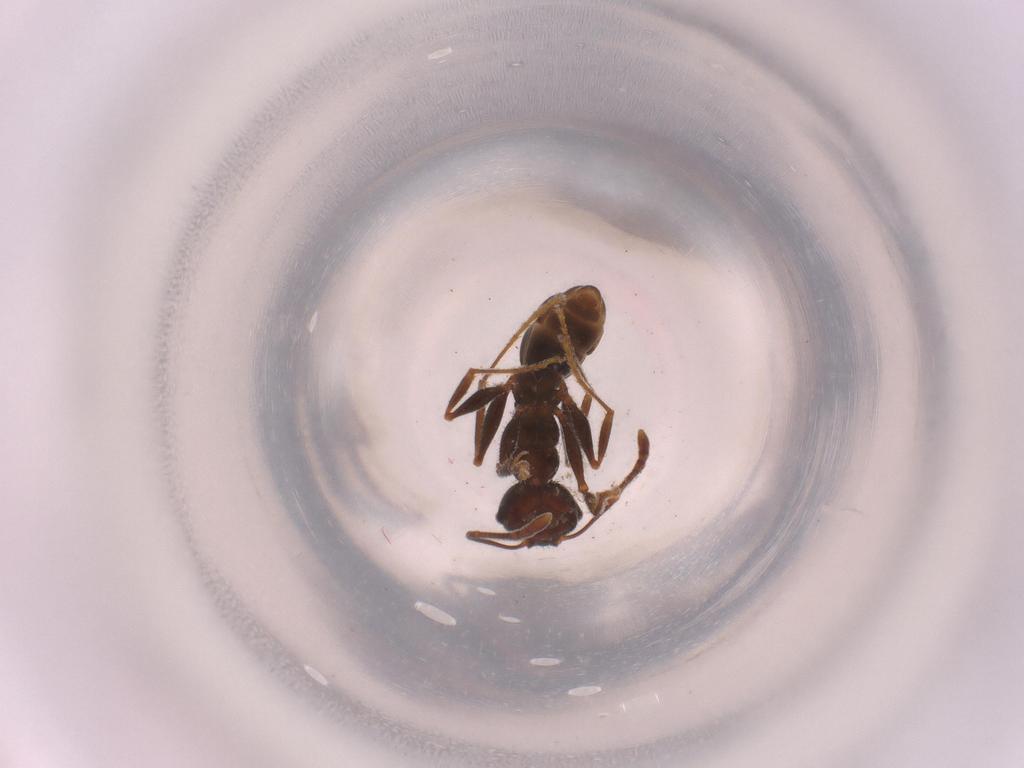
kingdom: Animalia
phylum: Arthropoda
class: Insecta
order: Hymenoptera
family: Formicidae
